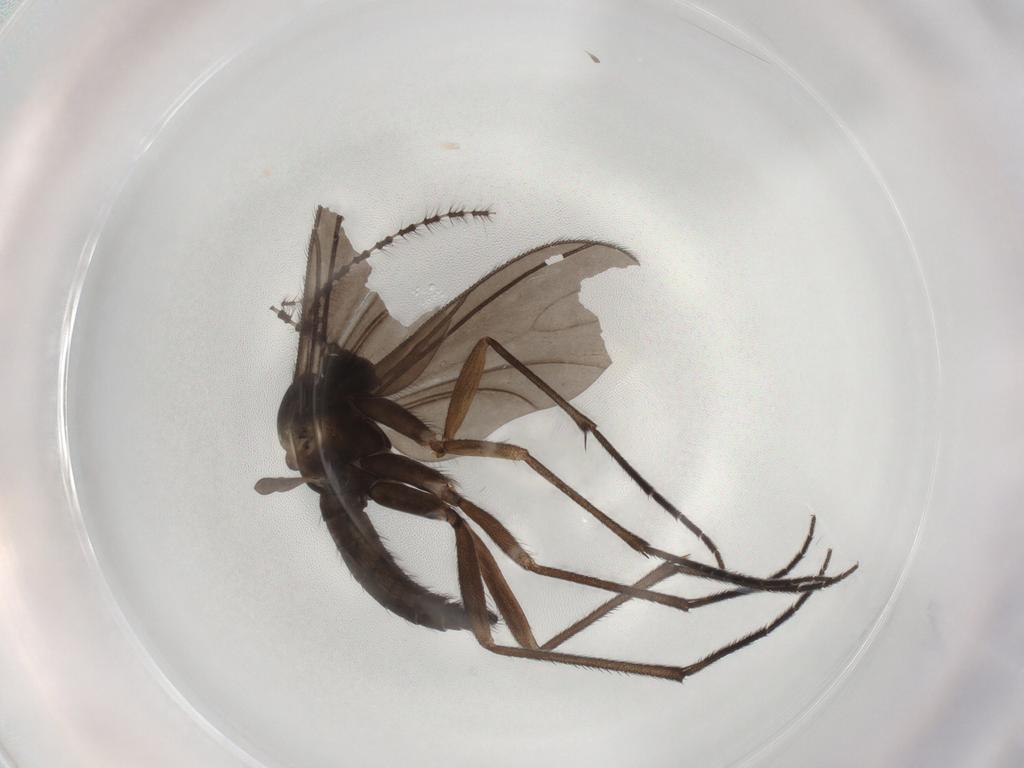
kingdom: Animalia
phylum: Arthropoda
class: Insecta
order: Diptera
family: Sciaridae
